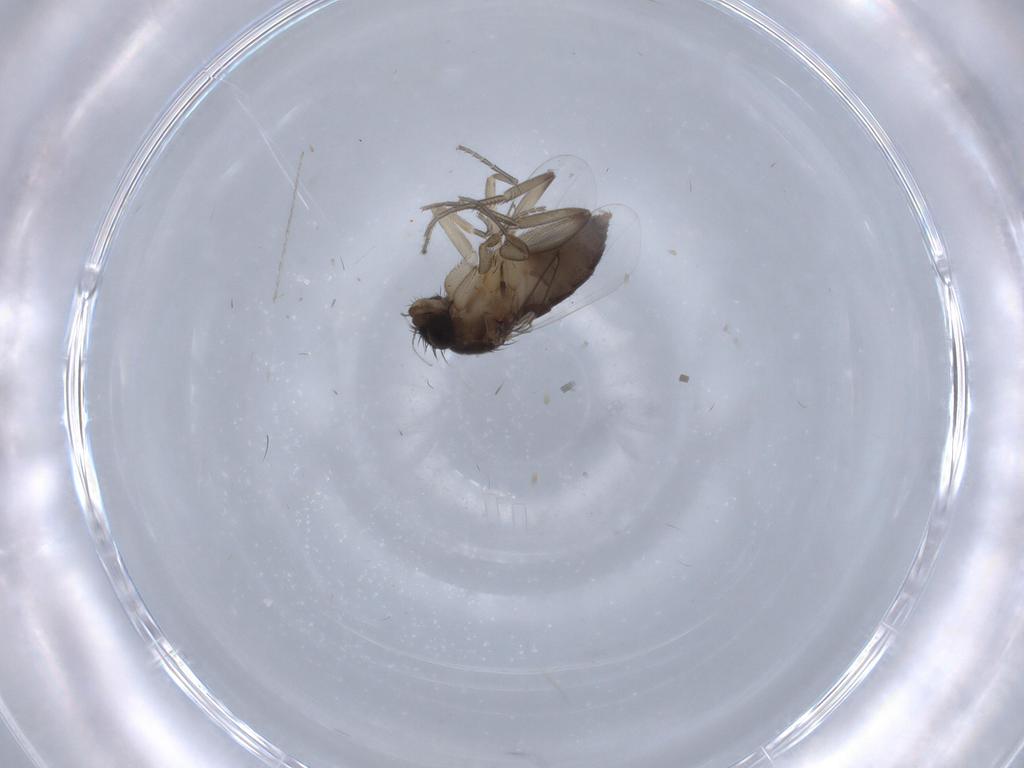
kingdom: Animalia
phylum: Arthropoda
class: Insecta
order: Diptera
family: Phoridae
